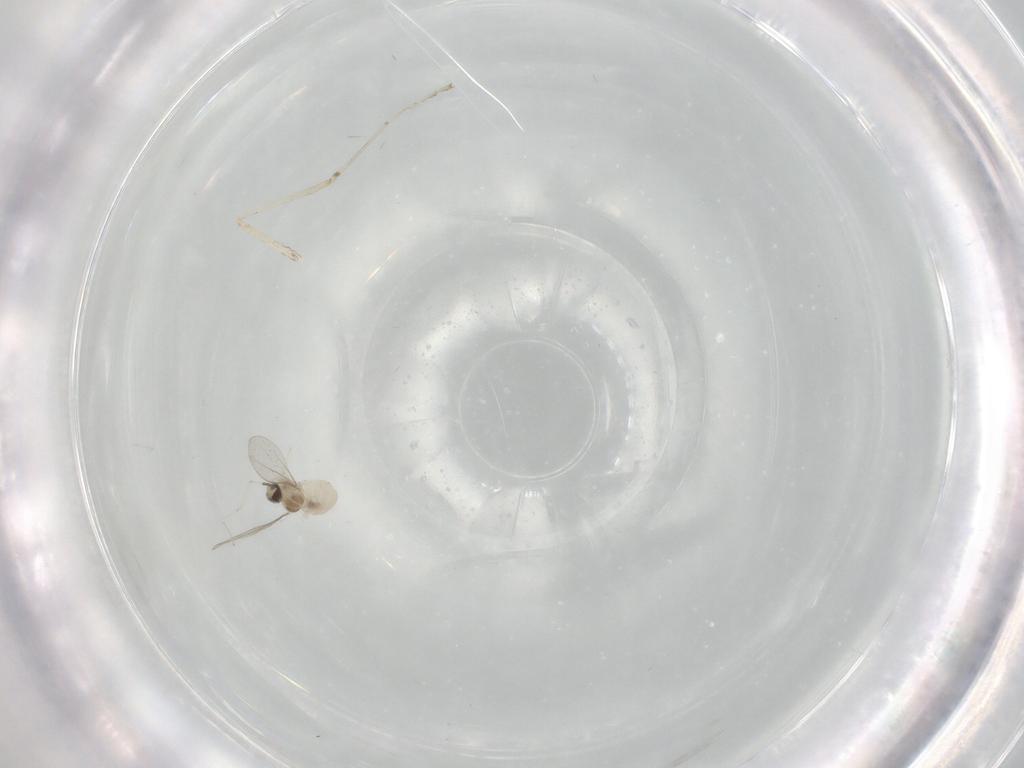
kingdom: Animalia
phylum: Arthropoda
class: Insecta
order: Diptera
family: Cecidomyiidae
